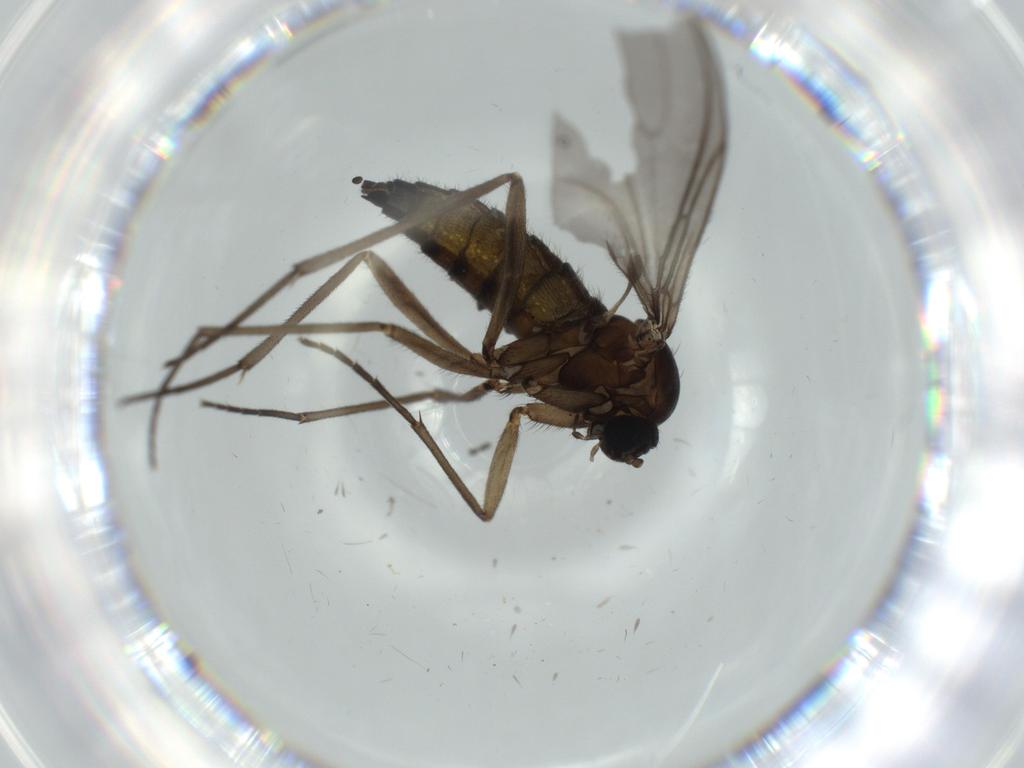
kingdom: Animalia
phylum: Arthropoda
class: Insecta
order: Diptera
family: Sciaridae
